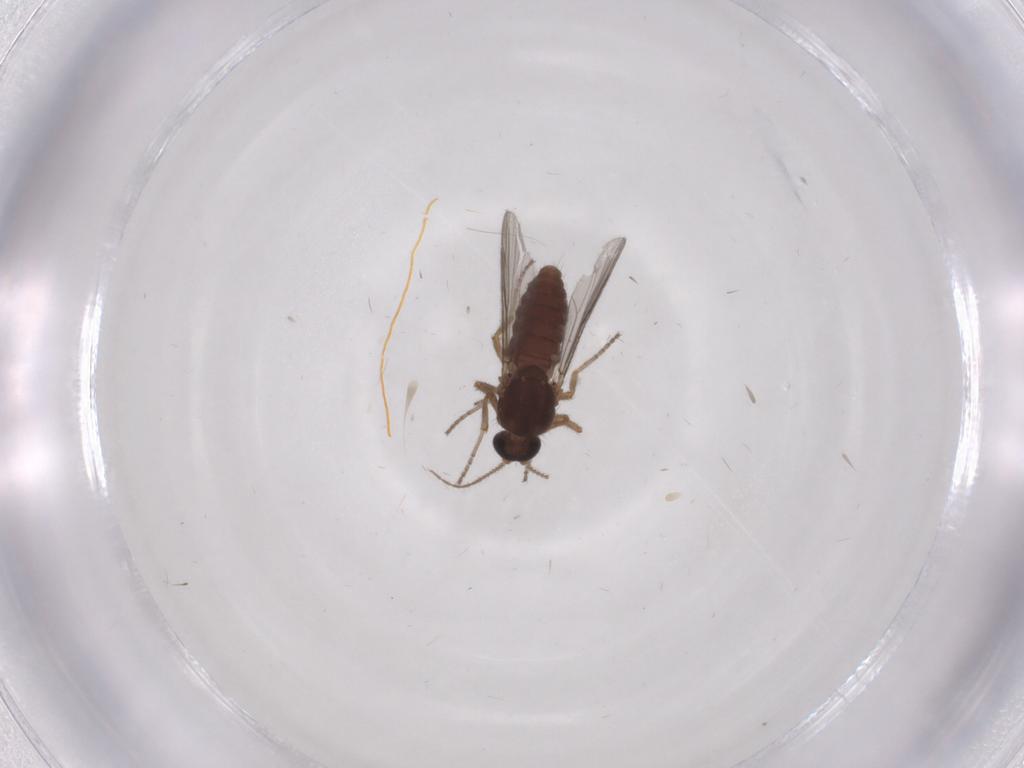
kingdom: Animalia
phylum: Arthropoda
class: Insecta
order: Diptera
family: Ceratopogonidae
